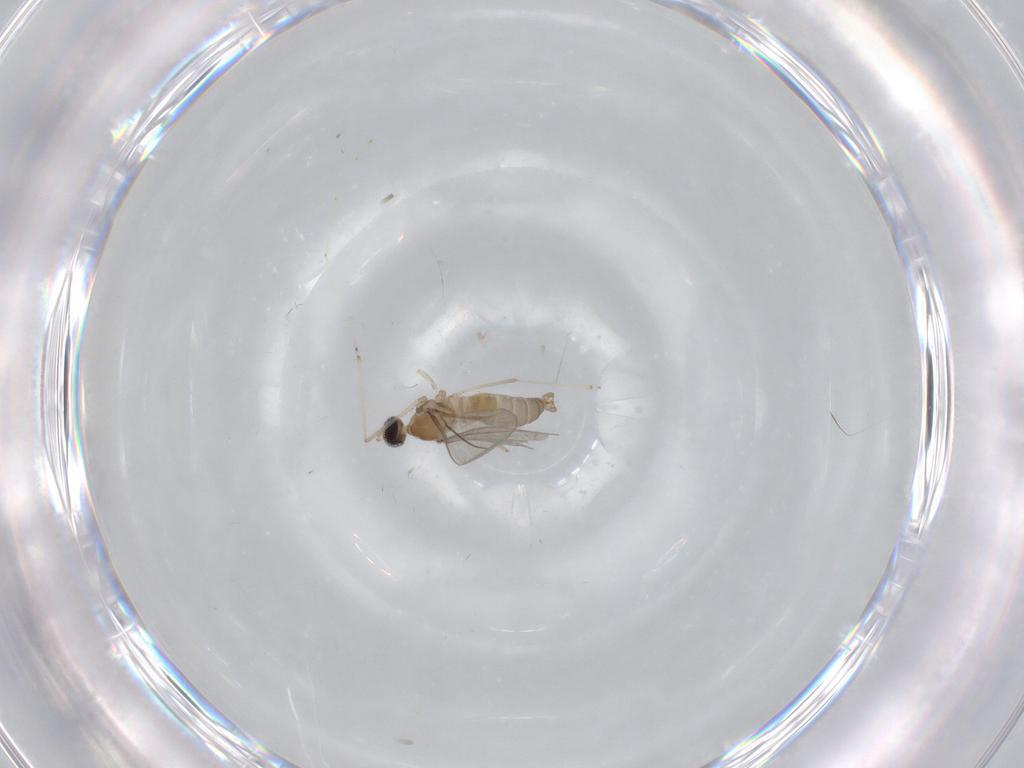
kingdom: Animalia
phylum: Arthropoda
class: Insecta
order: Diptera
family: Cecidomyiidae
